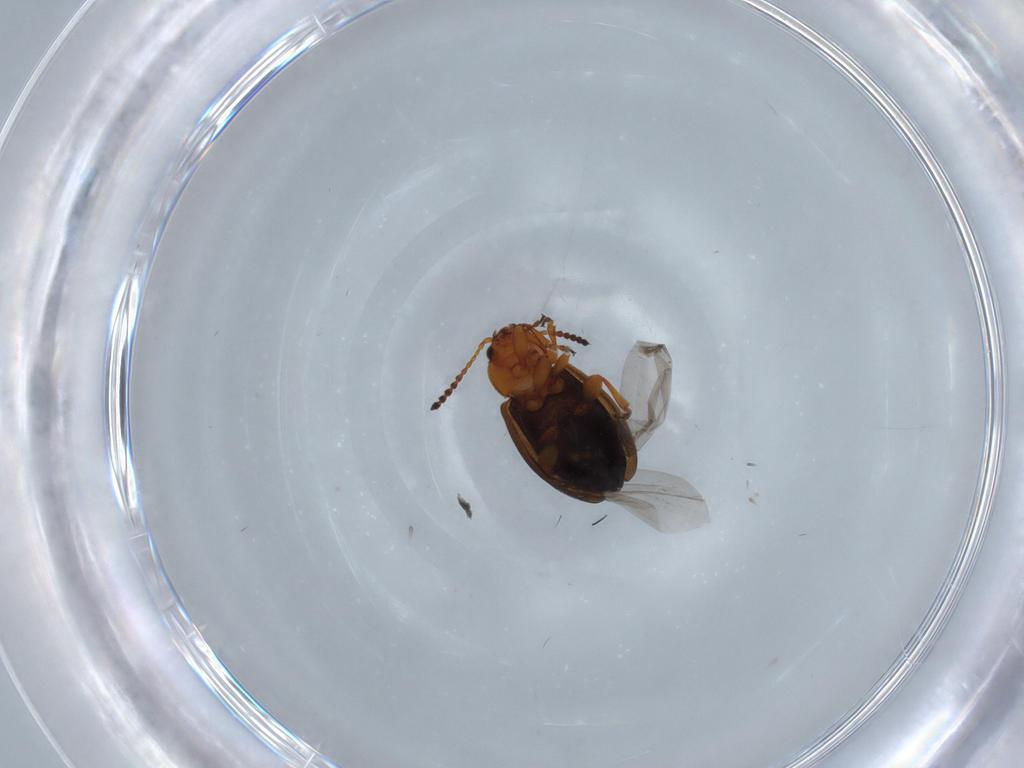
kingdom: Animalia
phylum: Arthropoda
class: Insecta
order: Coleoptera
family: Chrysomelidae
